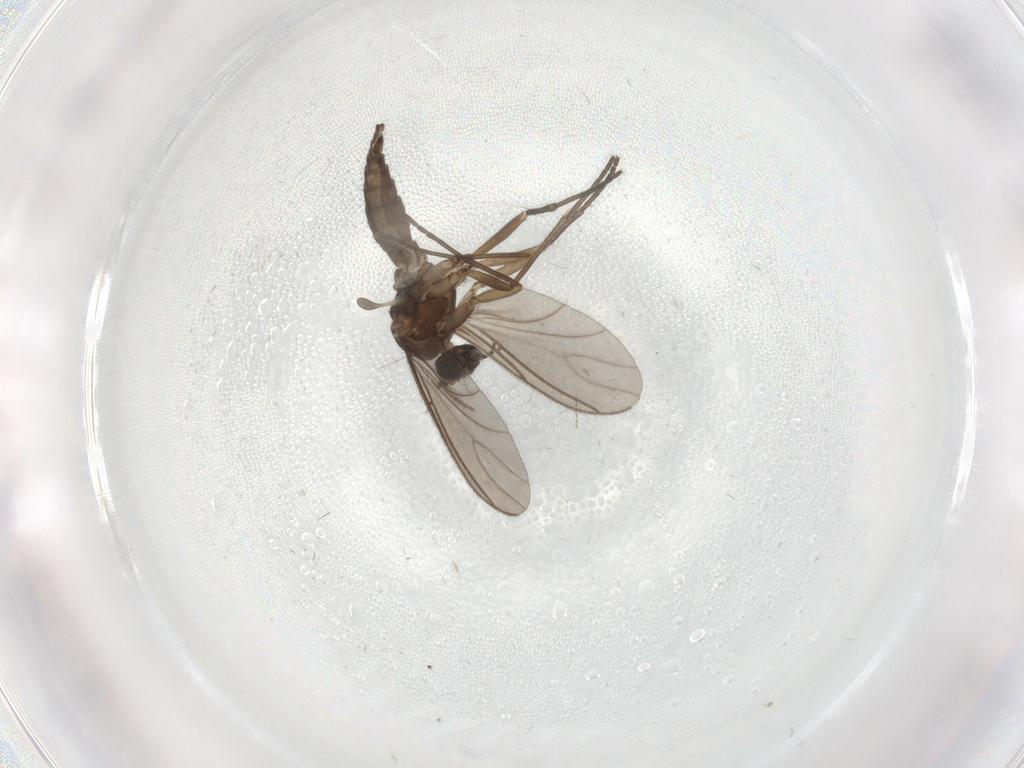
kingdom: Animalia
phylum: Arthropoda
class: Insecta
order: Diptera
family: Sciaridae
